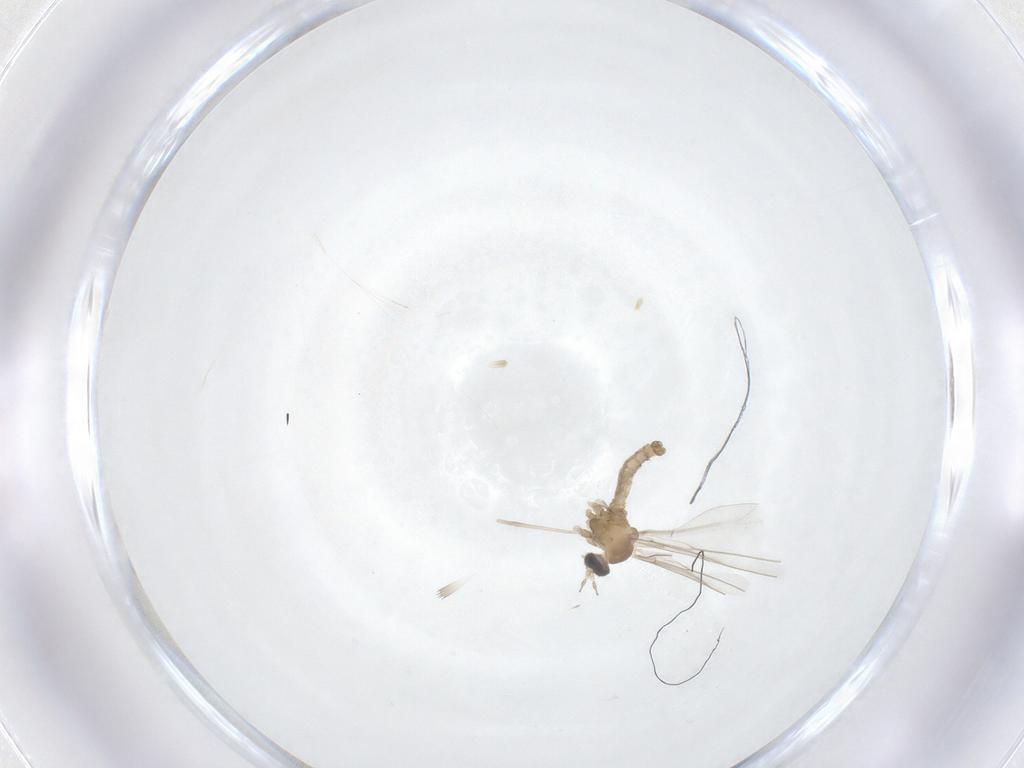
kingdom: Animalia
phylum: Arthropoda
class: Insecta
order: Diptera
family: Cecidomyiidae
